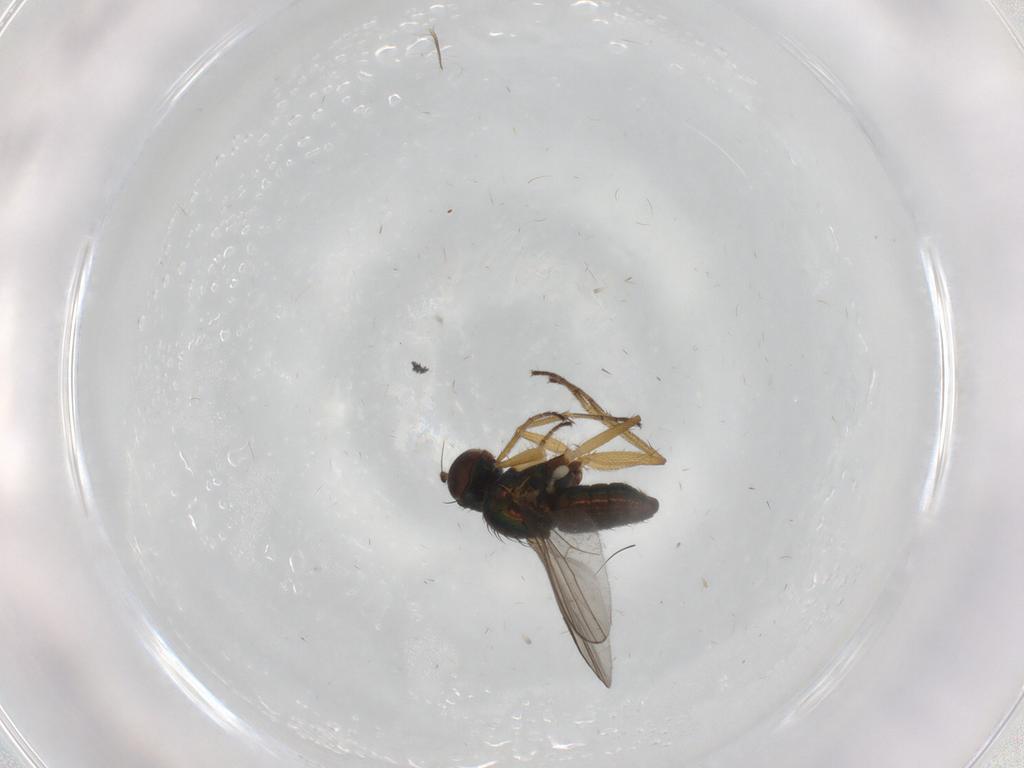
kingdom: Animalia
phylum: Arthropoda
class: Insecta
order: Diptera
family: Chironomidae
